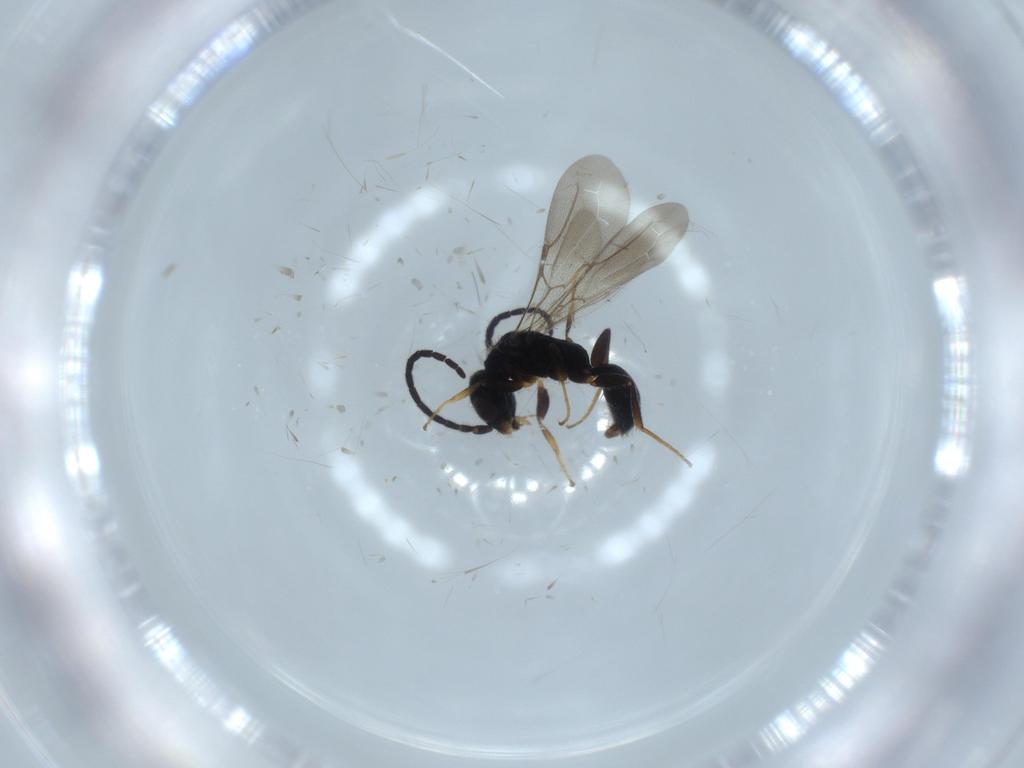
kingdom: Animalia
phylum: Arthropoda
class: Insecta
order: Hymenoptera
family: Bethylidae
